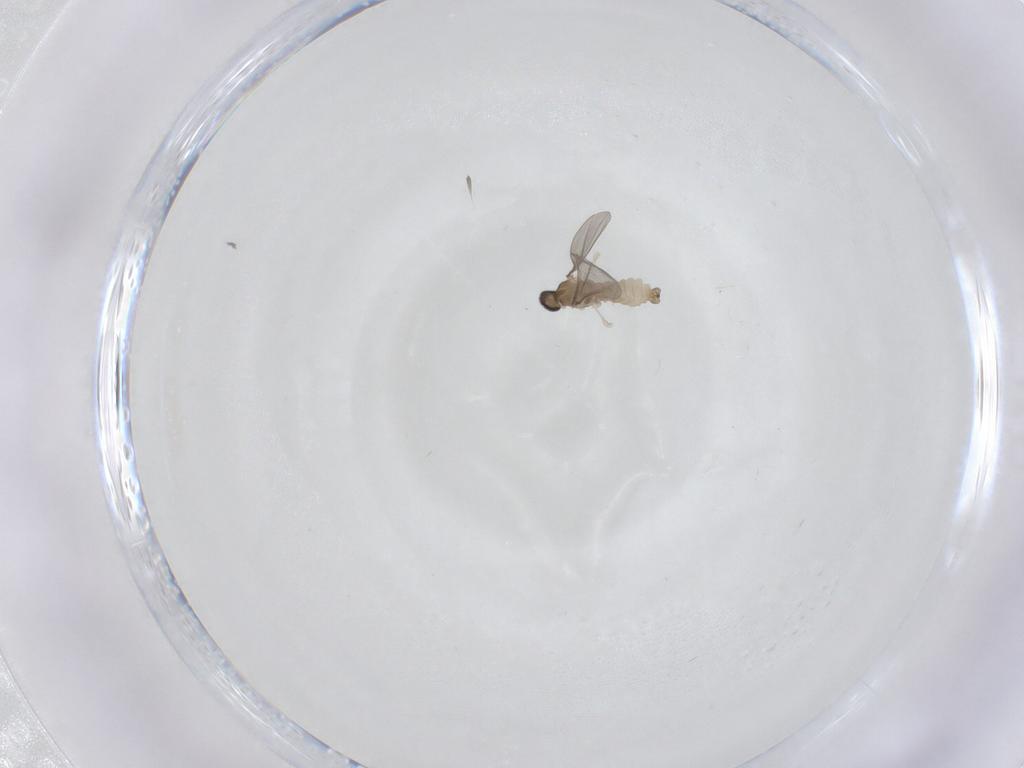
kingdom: Animalia
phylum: Arthropoda
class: Insecta
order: Diptera
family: Cecidomyiidae
